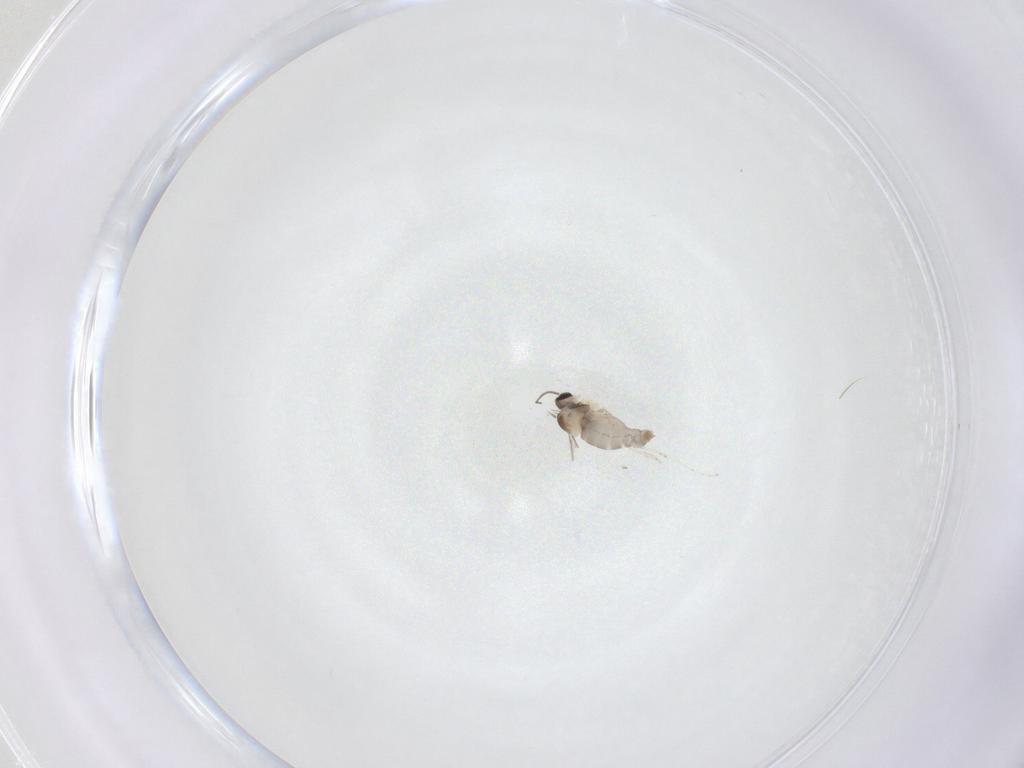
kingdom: Animalia
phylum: Arthropoda
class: Insecta
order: Diptera
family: Cecidomyiidae
